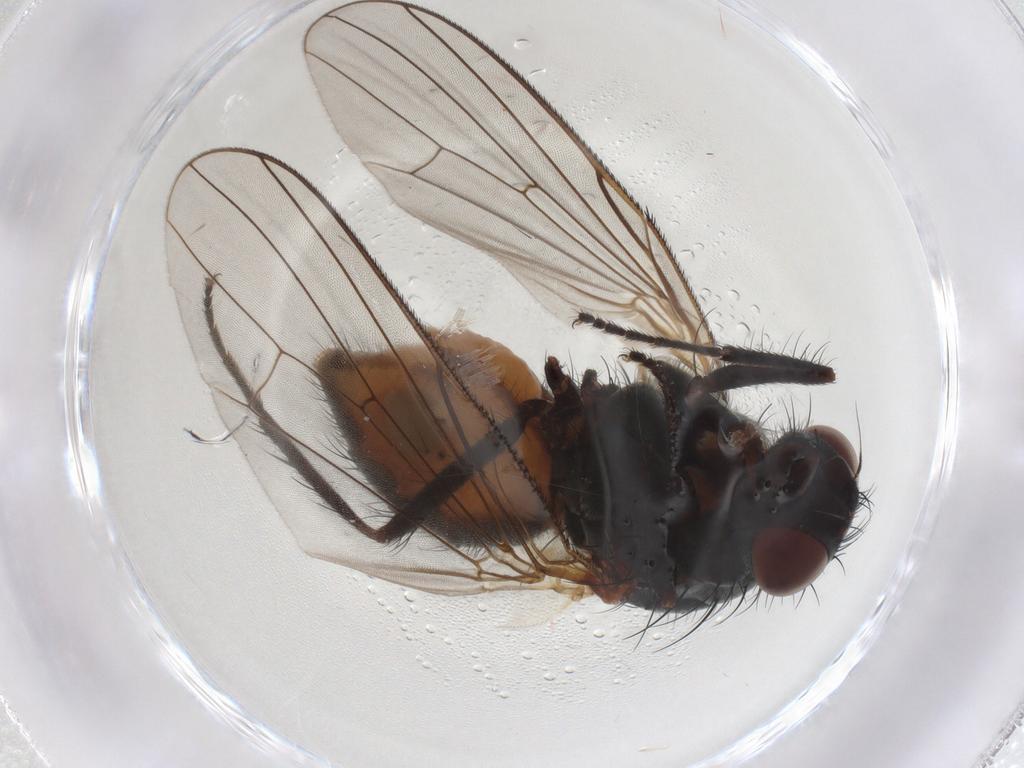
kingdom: Animalia
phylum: Arthropoda
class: Insecta
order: Diptera
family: Anthomyiidae
